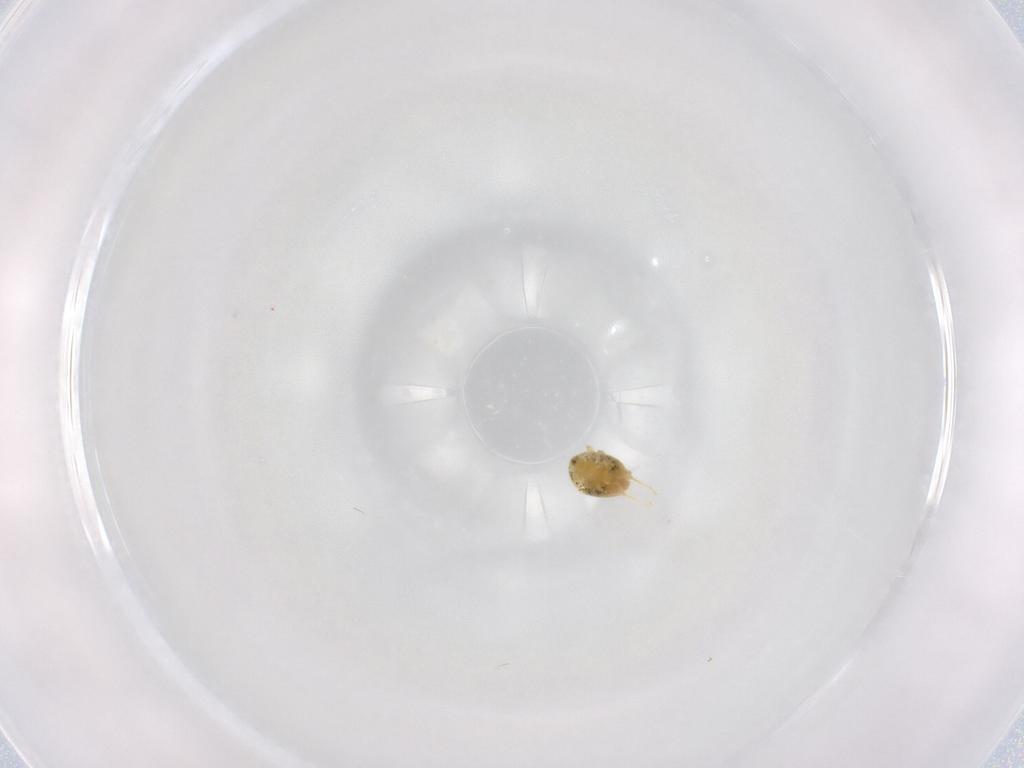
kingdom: Animalia
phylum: Arthropoda
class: Arachnida
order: Trombidiformes
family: Tetranychidae
